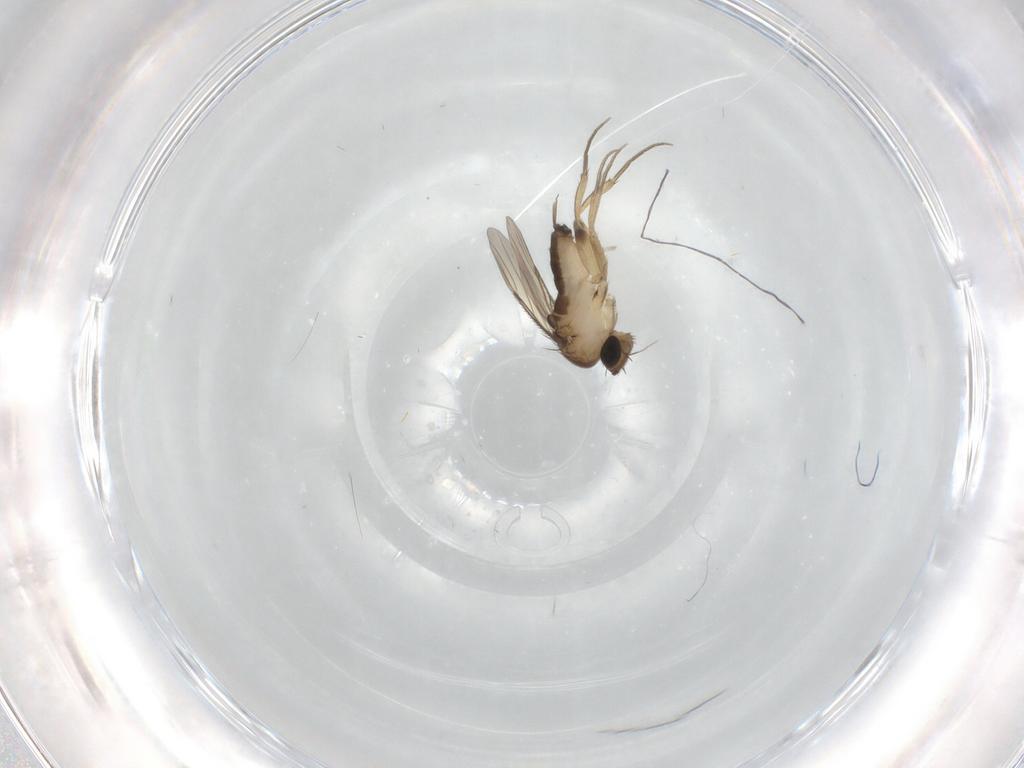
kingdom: Animalia
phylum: Arthropoda
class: Insecta
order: Diptera
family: Phoridae
